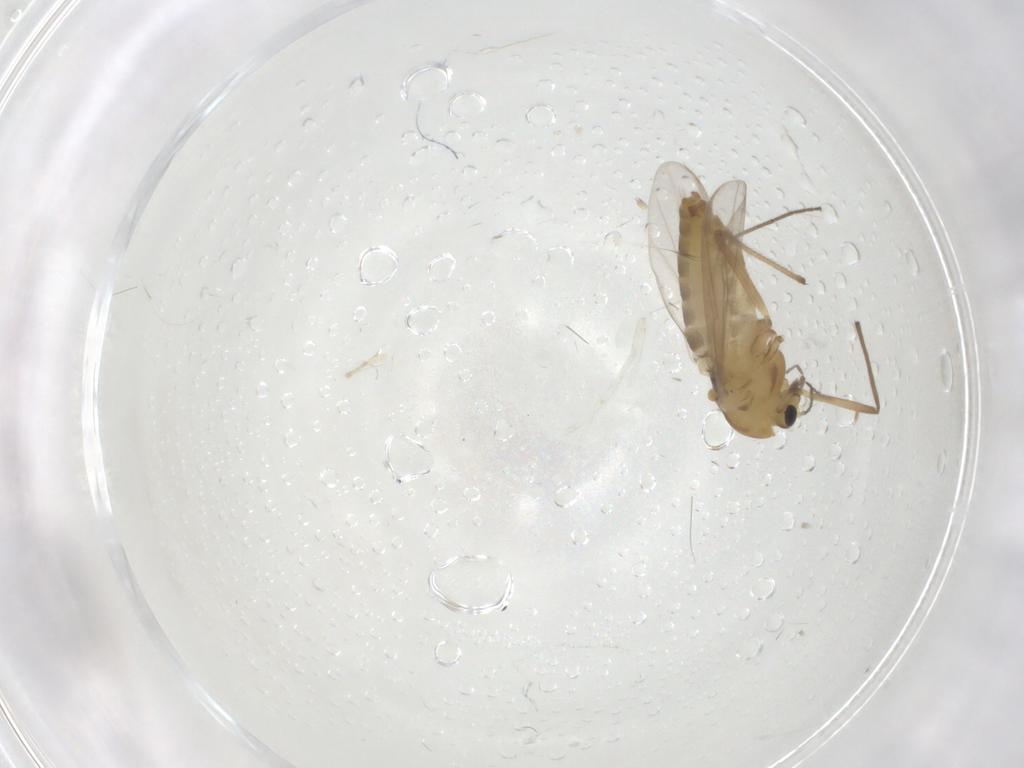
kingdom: Animalia
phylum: Arthropoda
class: Insecta
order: Diptera
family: Chironomidae
